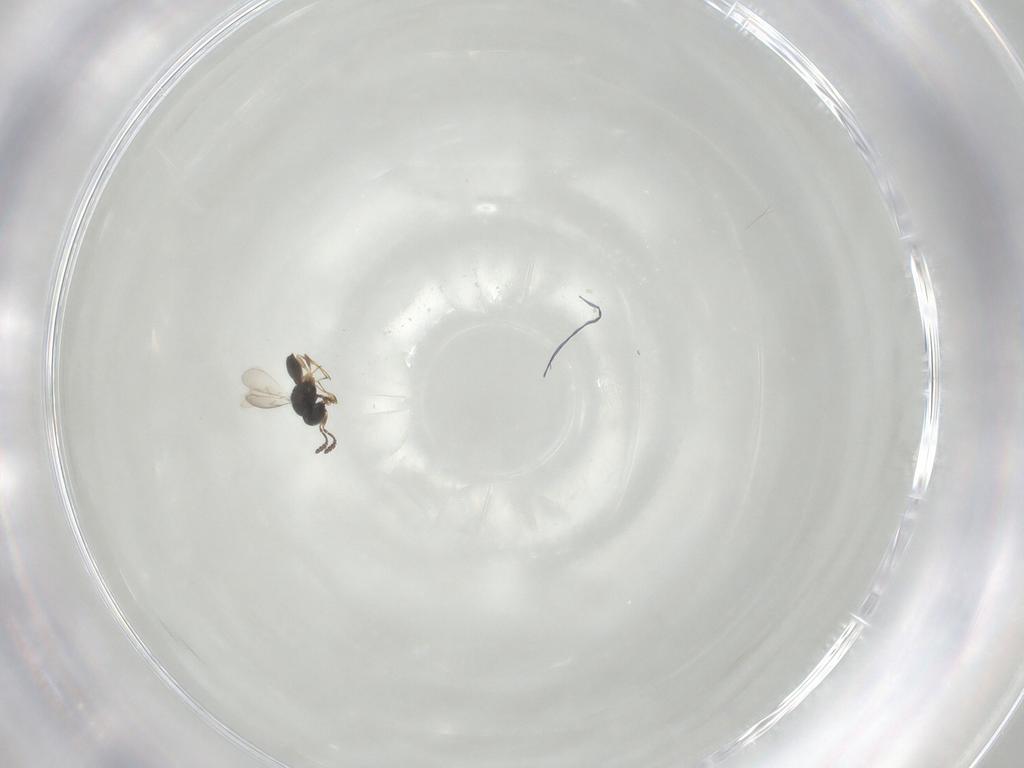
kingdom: Animalia
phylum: Arthropoda
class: Insecta
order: Hymenoptera
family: Scelionidae
